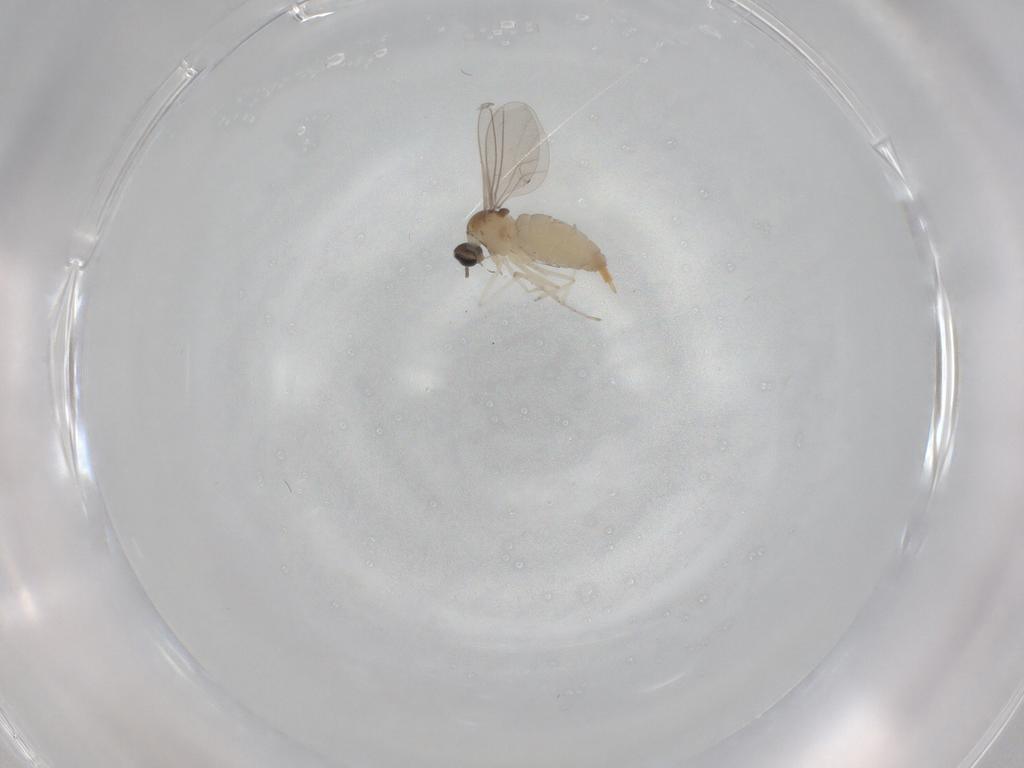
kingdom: Animalia
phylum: Arthropoda
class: Insecta
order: Diptera
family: Cecidomyiidae
